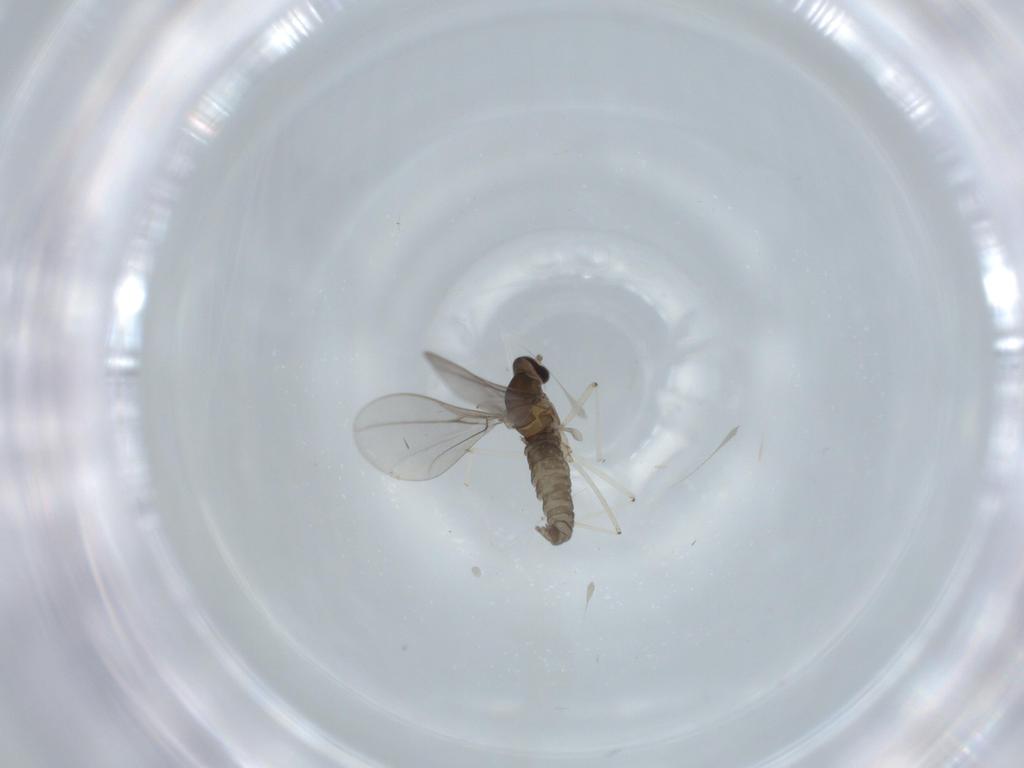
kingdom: Animalia
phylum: Arthropoda
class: Insecta
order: Diptera
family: Cecidomyiidae
